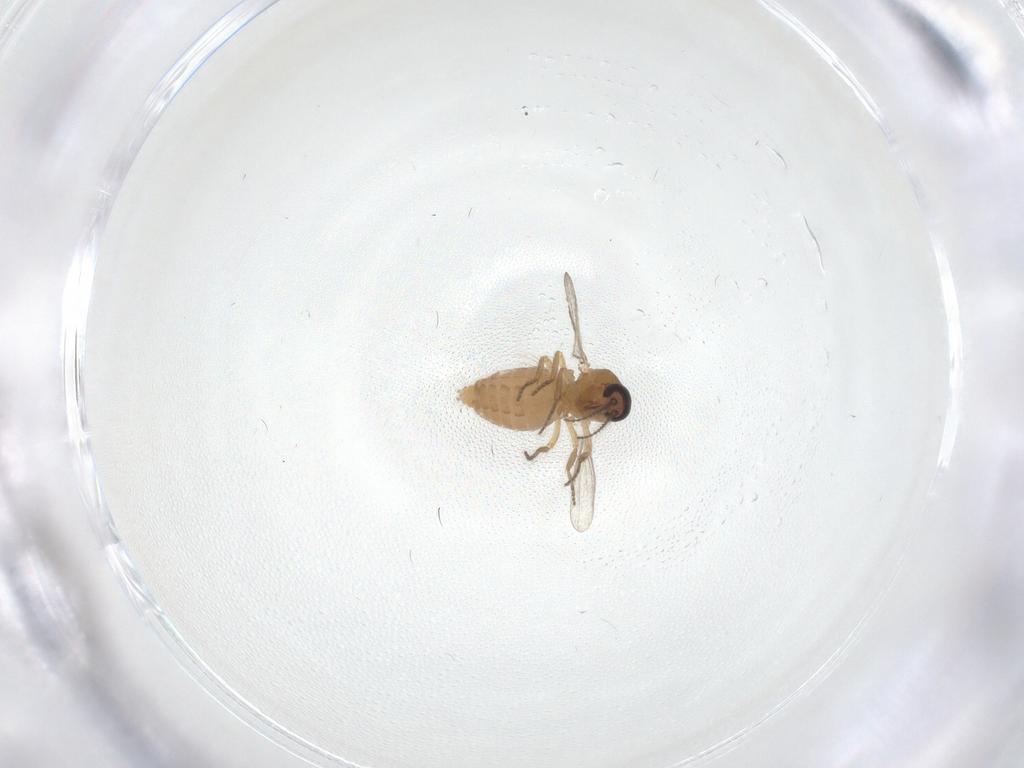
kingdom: Animalia
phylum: Arthropoda
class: Insecta
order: Diptera
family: Ceratopogonidae
